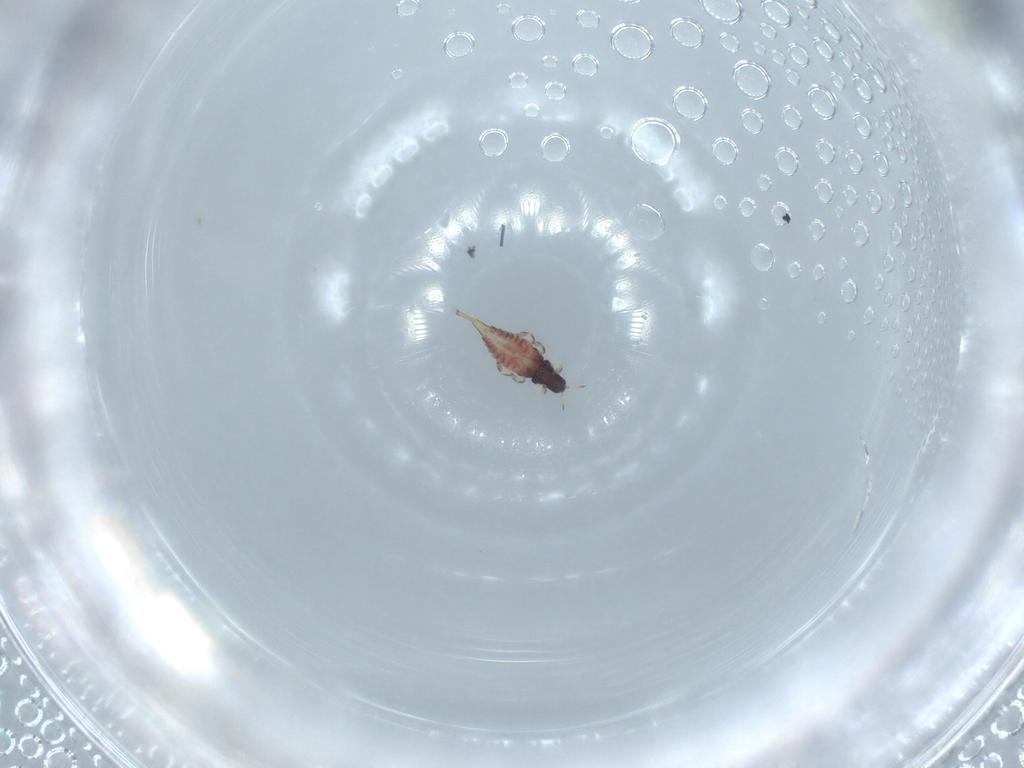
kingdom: Animalia
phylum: Arthropoda
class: Insecta
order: Thysanoptera
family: Phlaeothripidae
